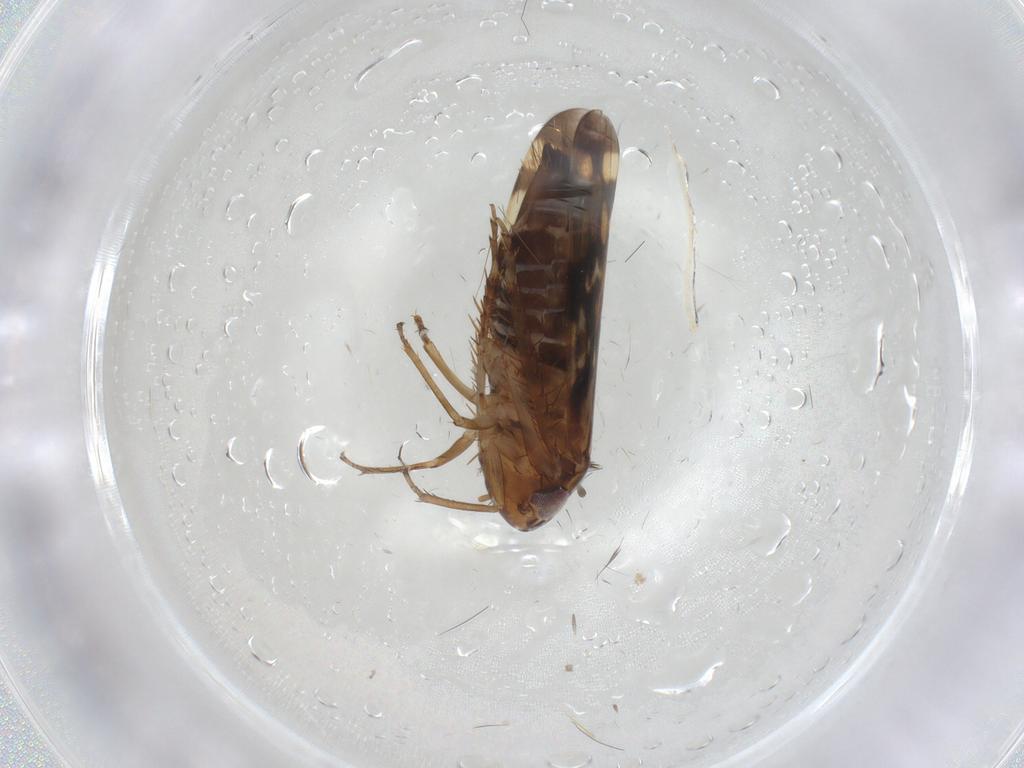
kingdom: Animalia
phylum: Arthropoda
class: Insecta
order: Hemiptera
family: Cicadellidae
